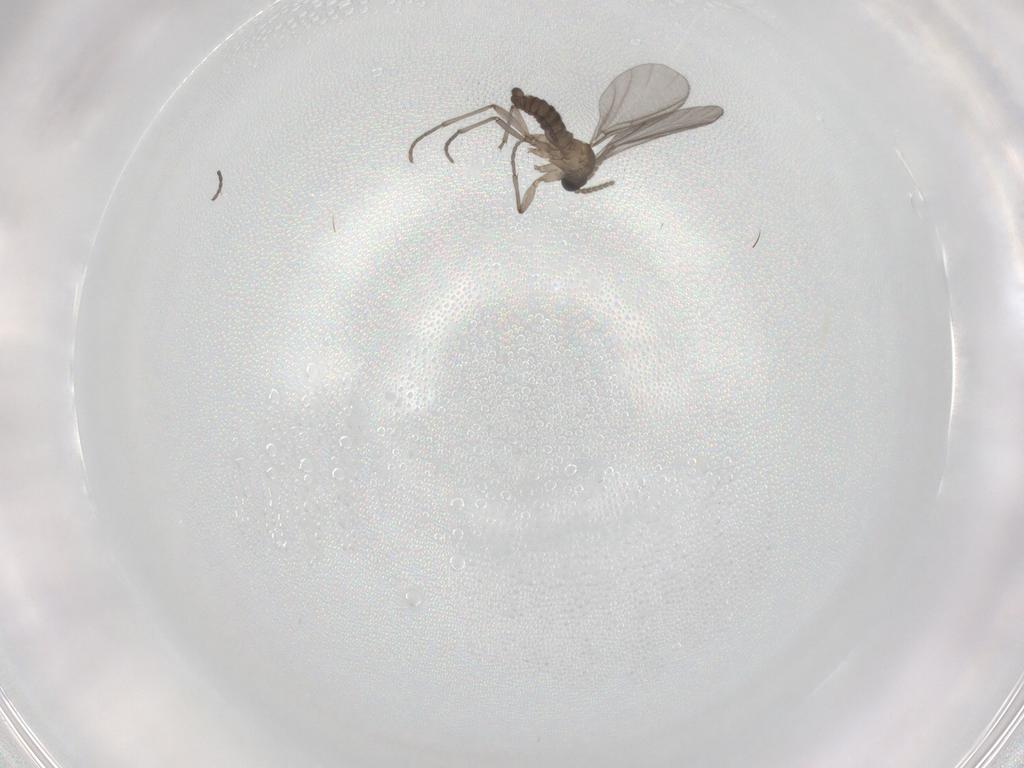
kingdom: Animalia
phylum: Arthropoda
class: Insecta
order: Diptera
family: Sciaridae
